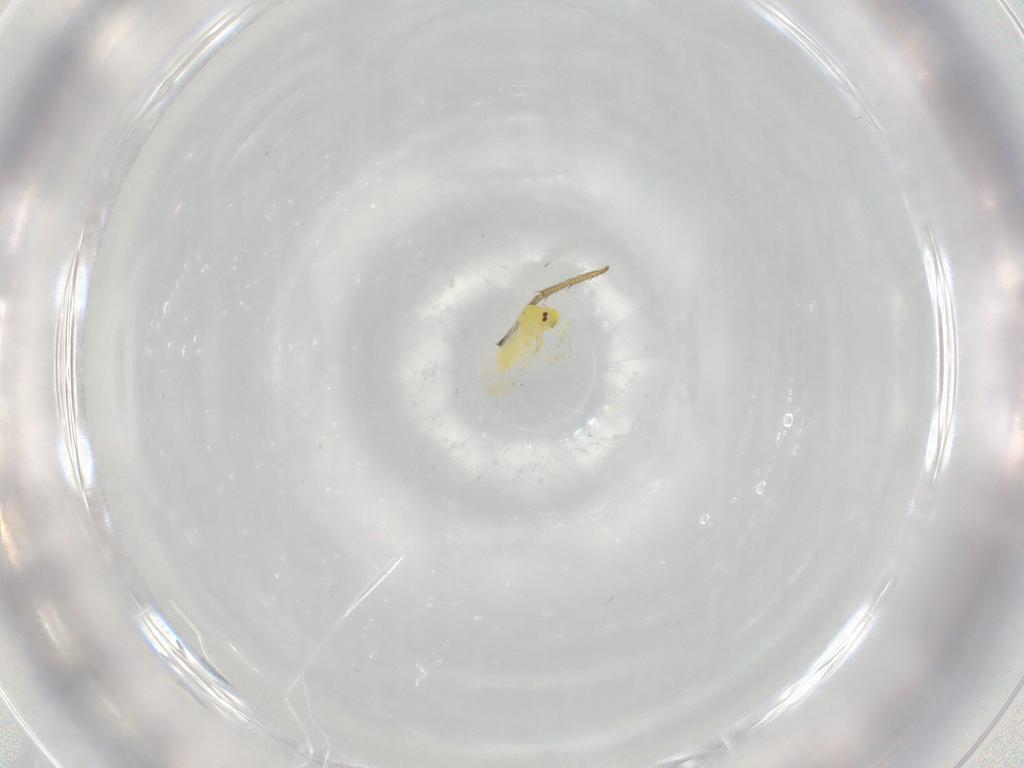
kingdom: Animalia
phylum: Arthropoda
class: Insecta
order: Hemiptera
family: Aleyrodidae
